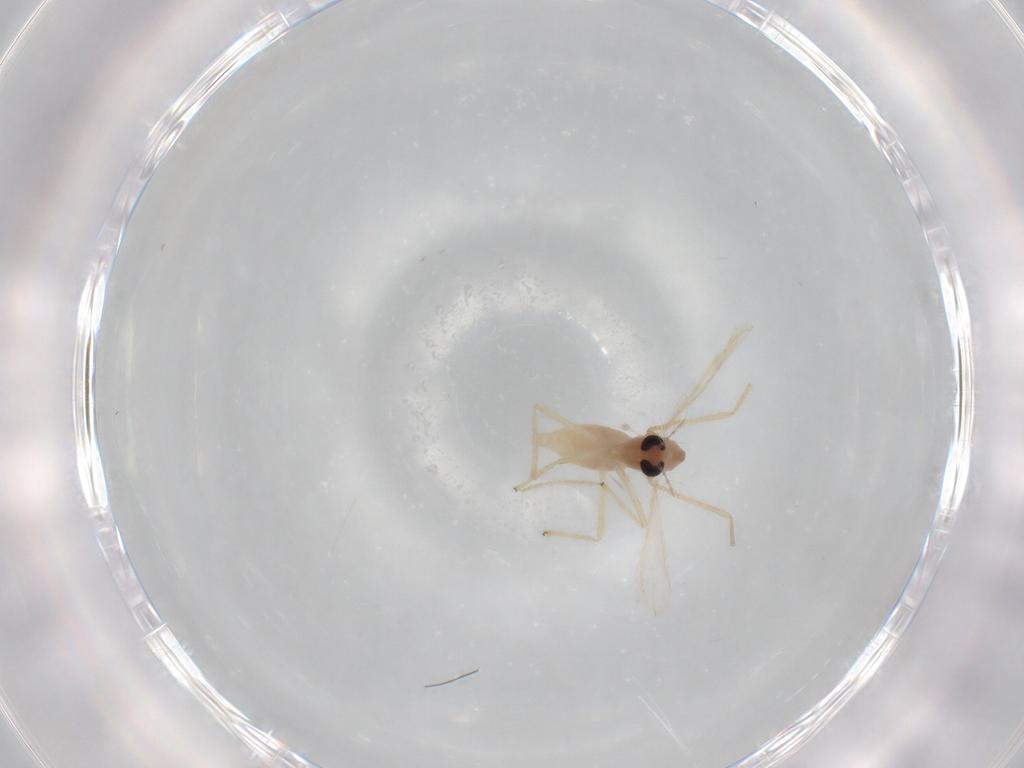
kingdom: Animalia
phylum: Arthropoda
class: Insecta
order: Diptera
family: Chironomidae
